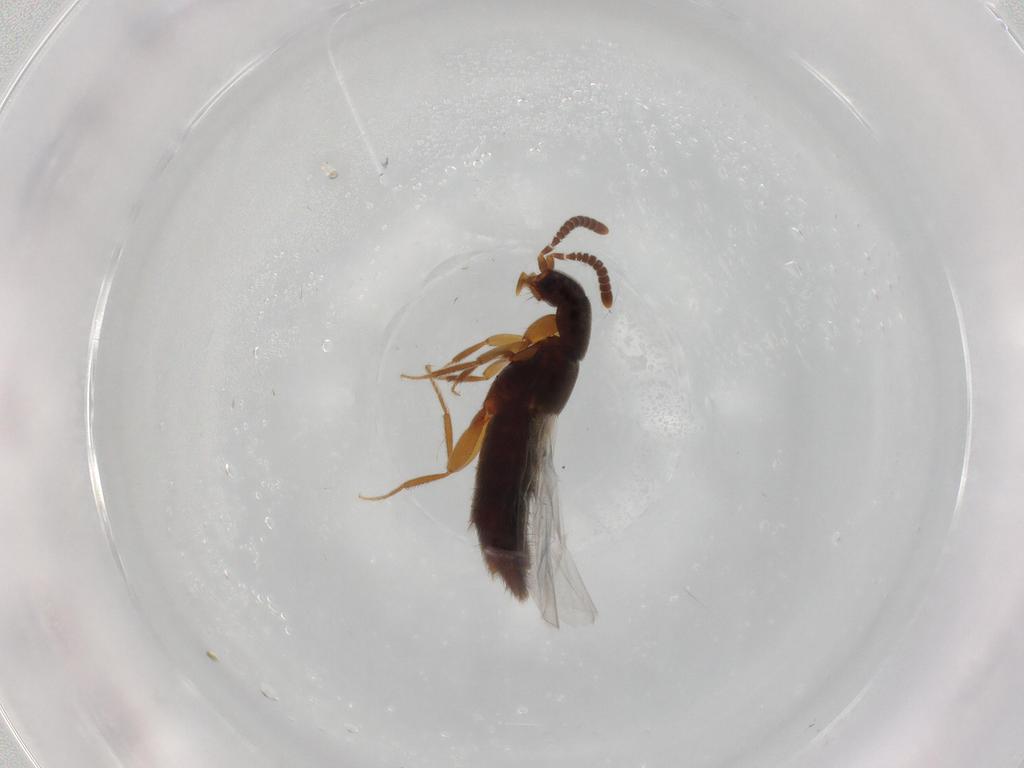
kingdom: Animalia
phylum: Arthropoda
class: Insecta
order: Coleoptera
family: Staphylinidae
